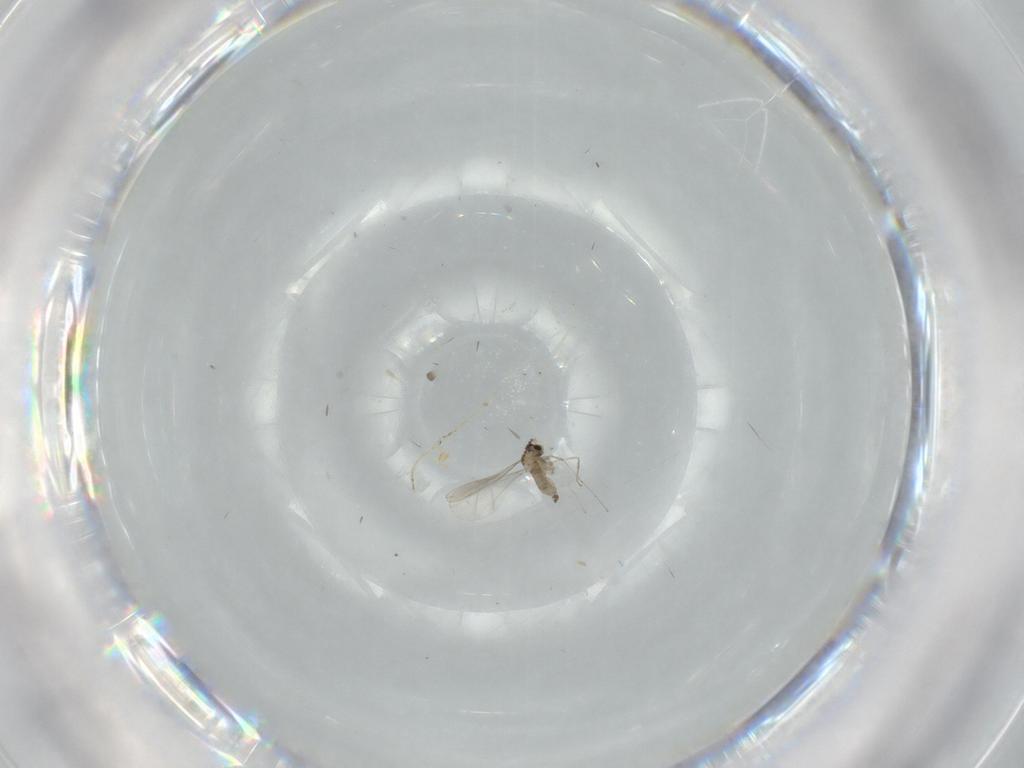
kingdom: Animalia
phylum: Arthropoda
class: Insecta
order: Diptera
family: Cecidomyiidae
